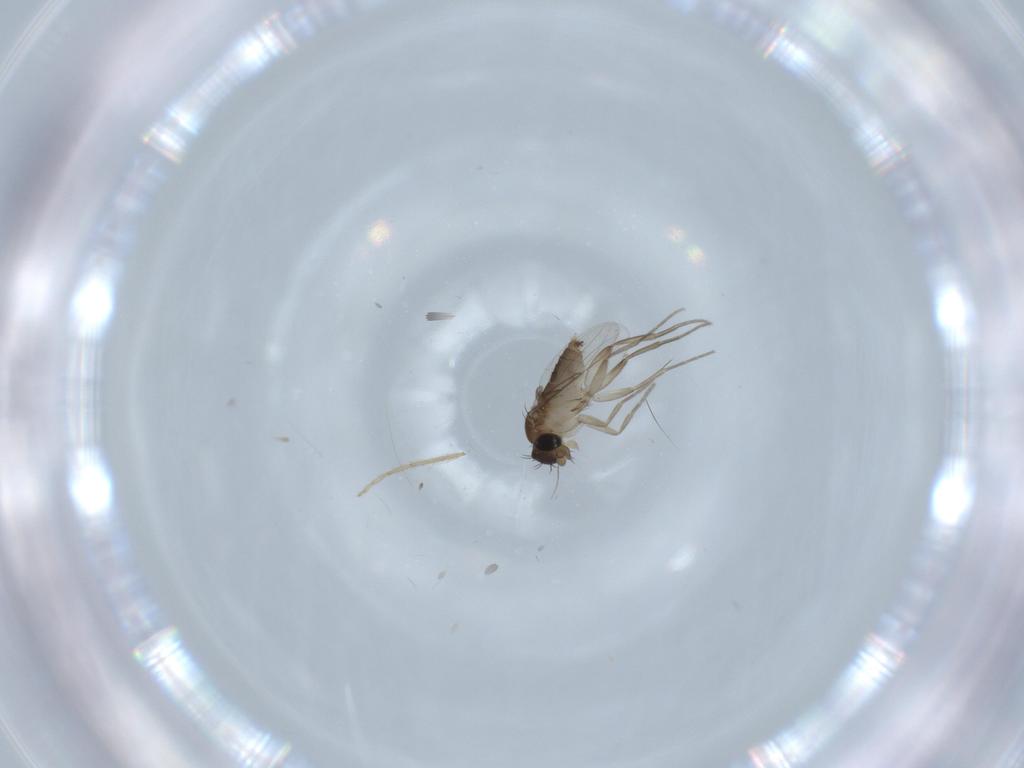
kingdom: Animalia
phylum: Arthropoda
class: Insecta
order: Diptera
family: Chironomidae
